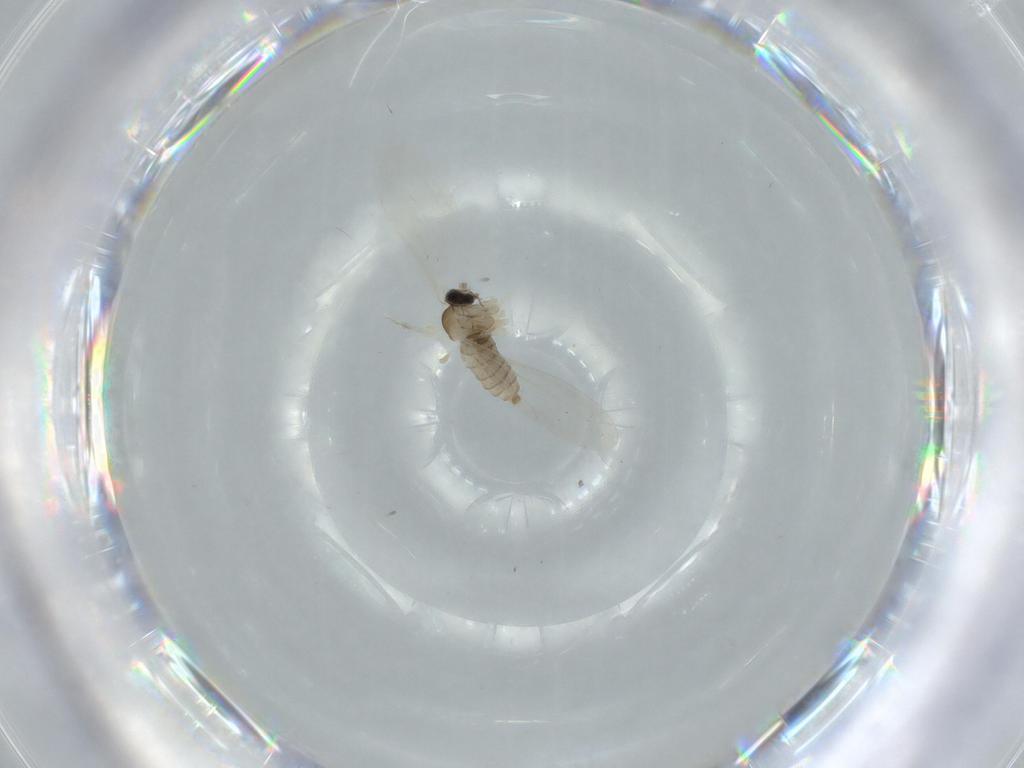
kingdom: Animalia
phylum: Arthropoda
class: Insecta
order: Diptera
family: Cecidomyiidae
